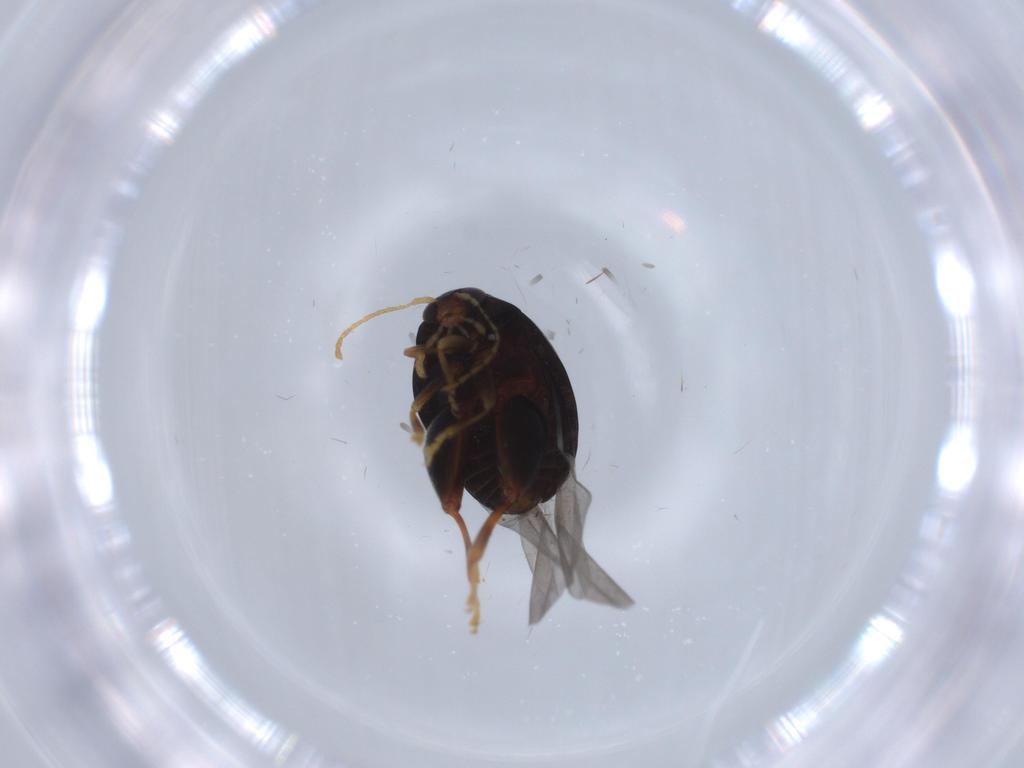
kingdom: Animalia
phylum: Arthropoda
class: Insecta
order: Coleoptera
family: Chrysomelidae
